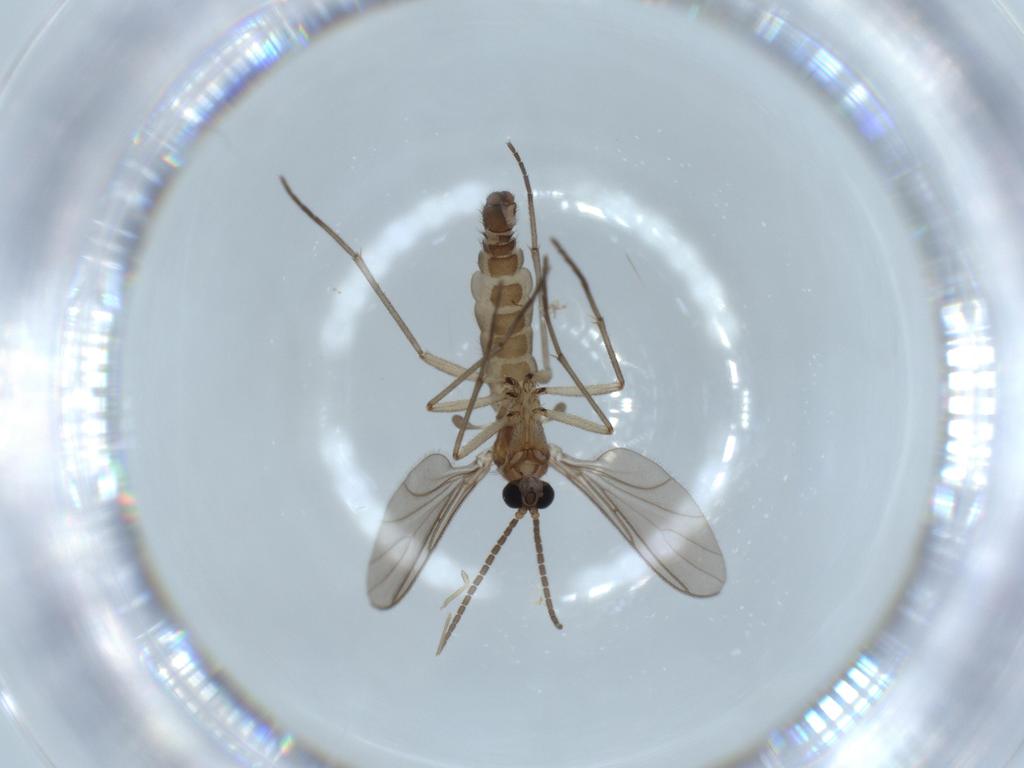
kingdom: Animalia
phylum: Arthropoda
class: Insecta
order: Diptera
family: Sciaridae
